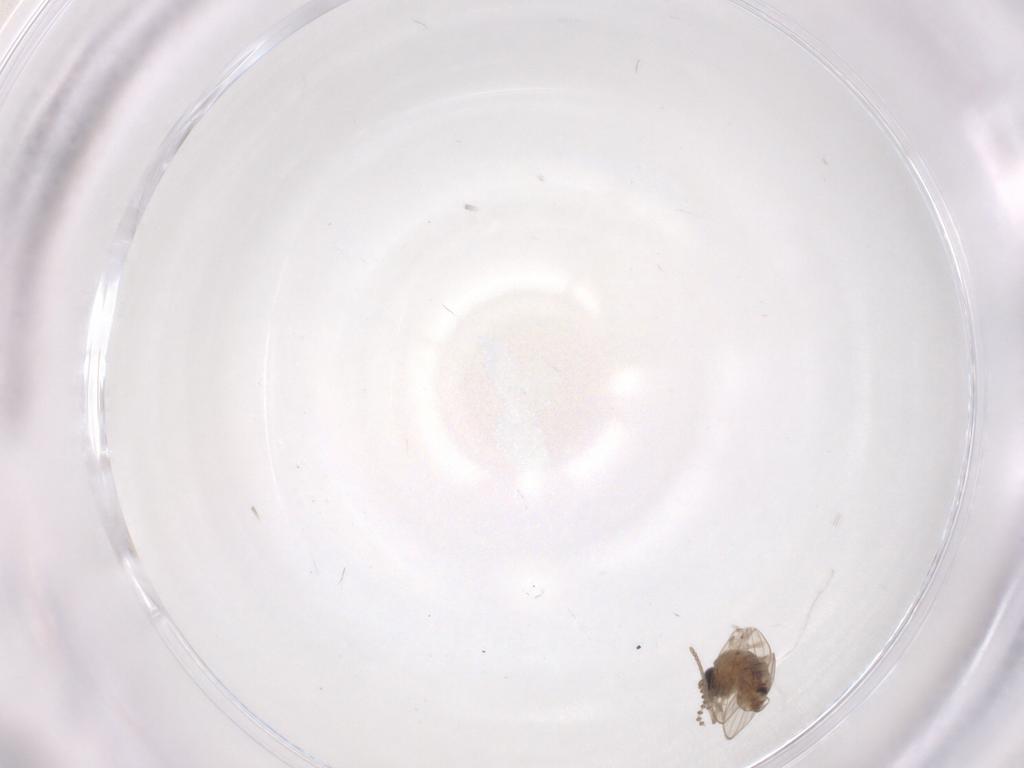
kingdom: Animalia
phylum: Arthropoda
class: Insecta
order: Diptera
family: Psychodidae
